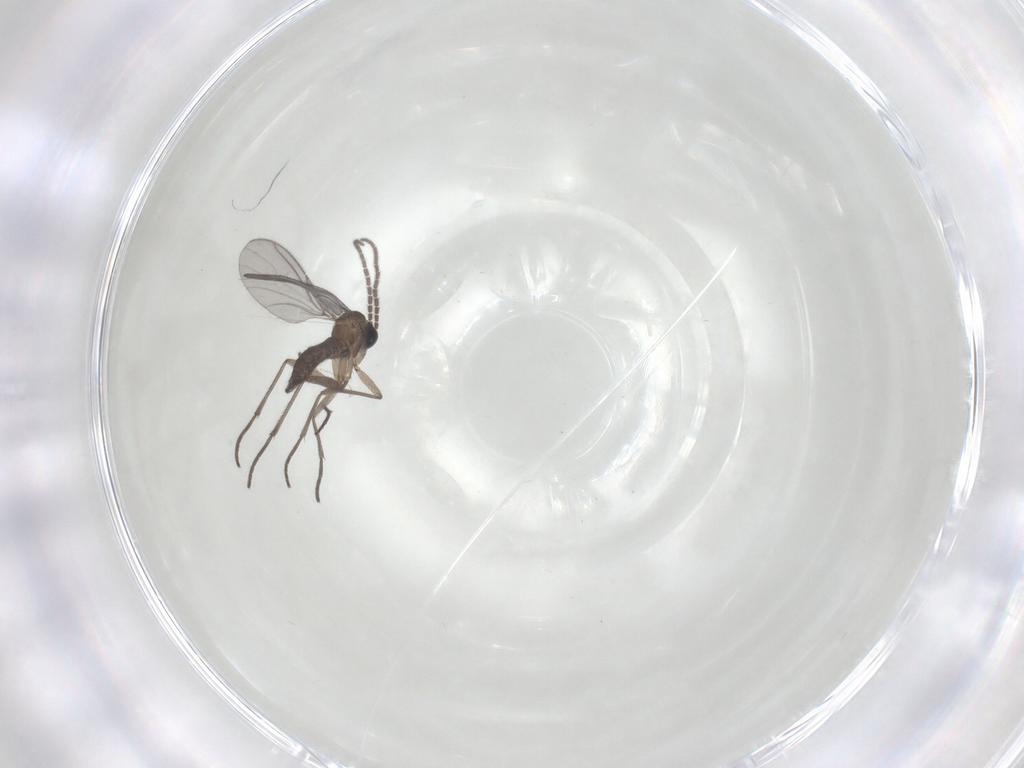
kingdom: Animalia
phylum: Arthropoda
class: Insecta
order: Diptera
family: Sciaridae
